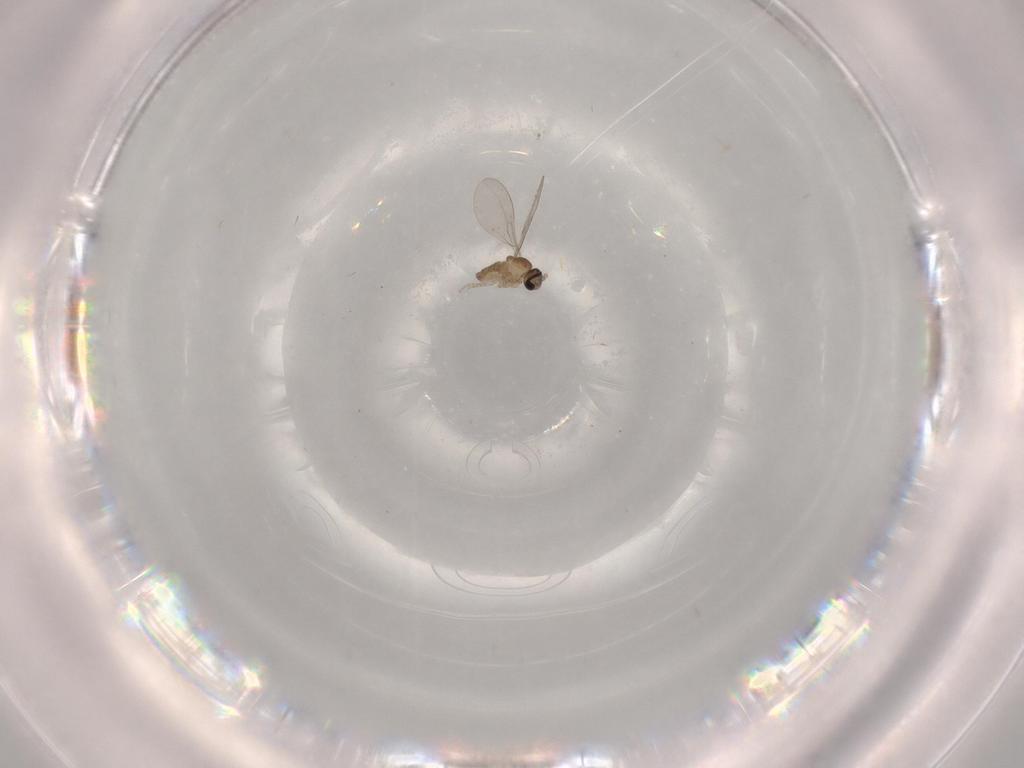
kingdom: Animalia
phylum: Arthropoda
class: Insecta
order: Diptera
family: Cecidomyiidae
